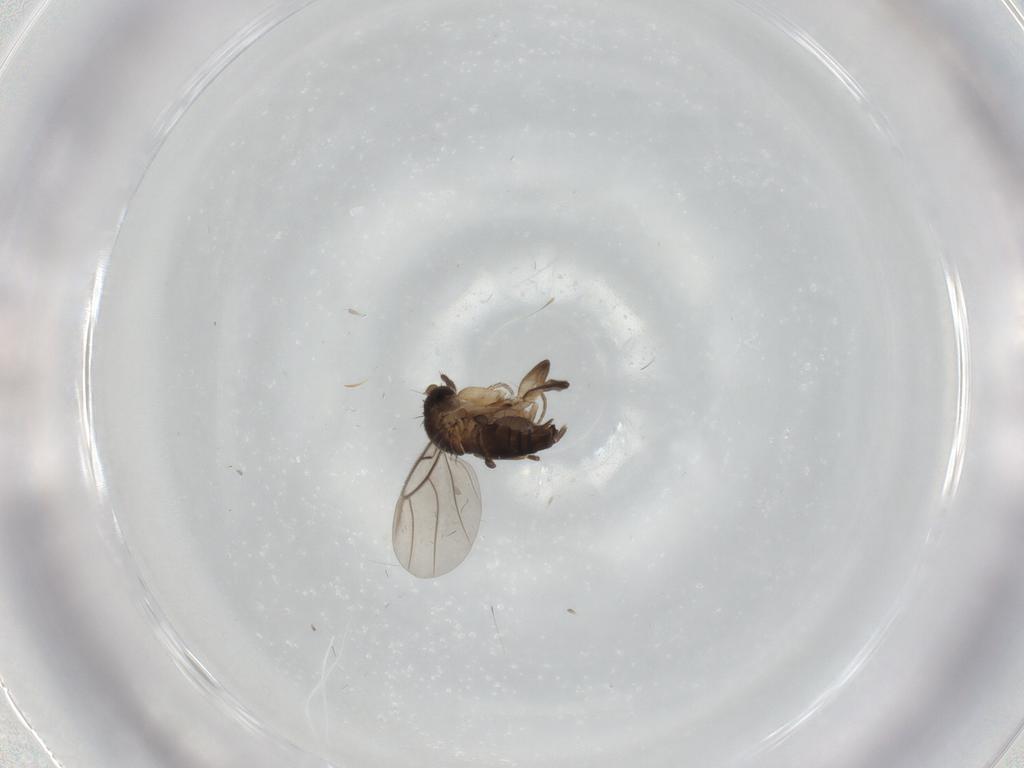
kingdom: Animalia
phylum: Arthropoda
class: Insecta
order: Diptera
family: Phoridae
